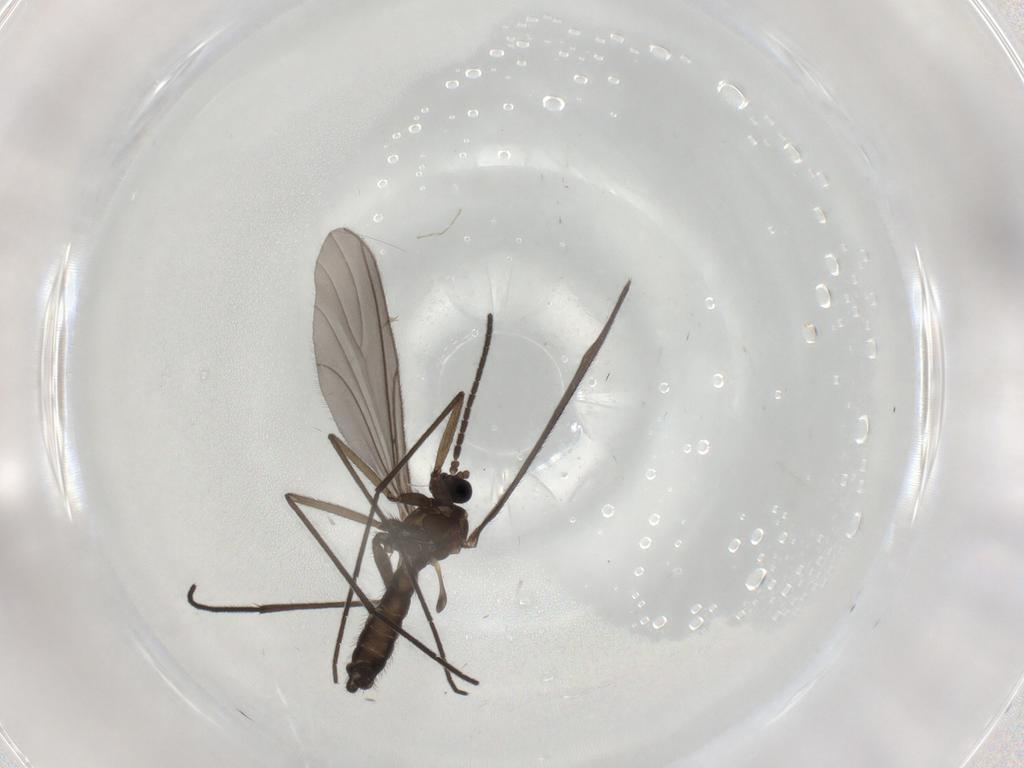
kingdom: Animalia
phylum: Arthropoda
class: Insecta
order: Diptera
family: Sciaridae
